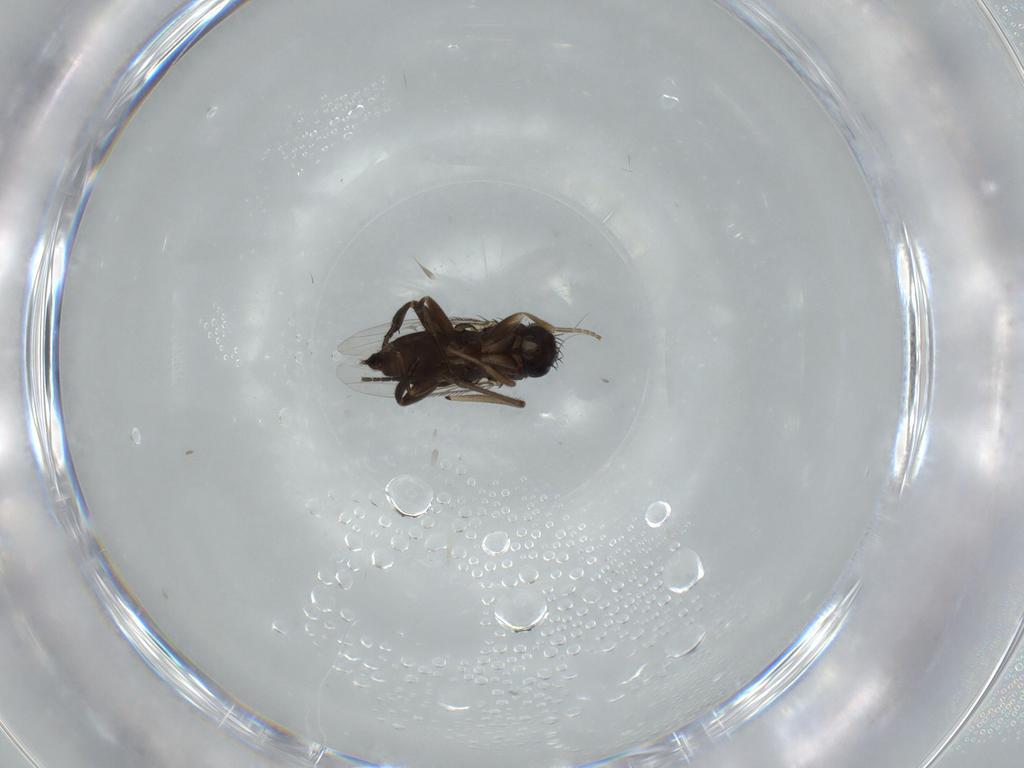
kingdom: Animalia
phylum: Arthropoda
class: Insecta
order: Diptera
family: Phoridae
